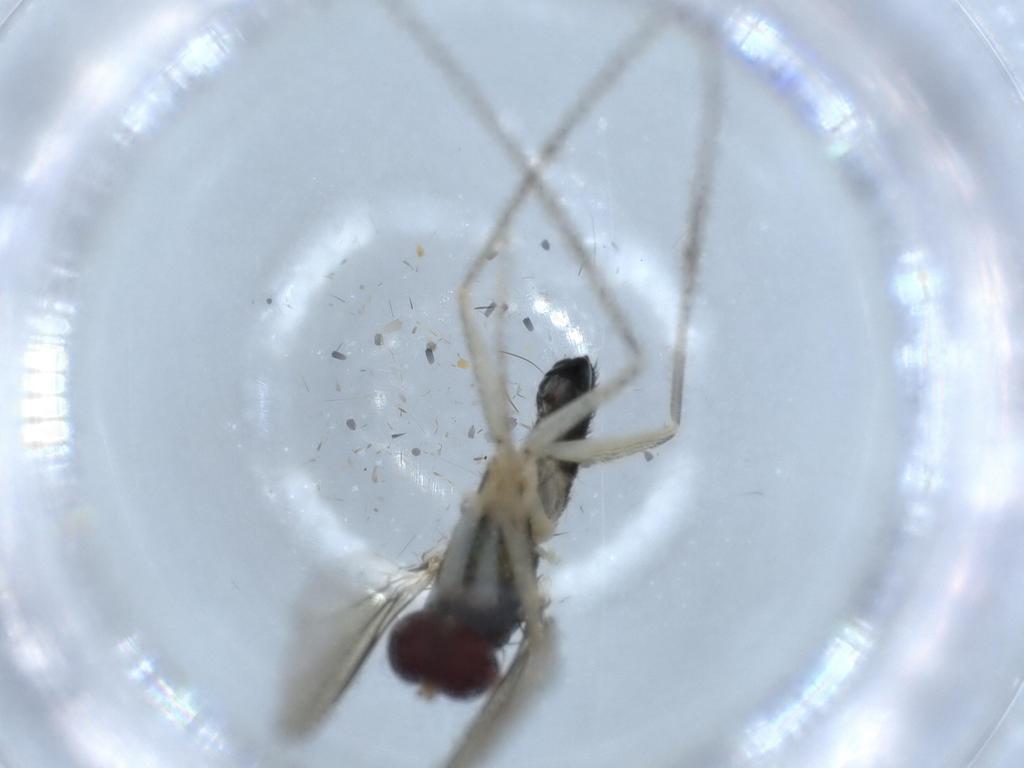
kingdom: Animalia
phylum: Arthropoda
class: Insecta
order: Diptera
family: Dolichopodidae
